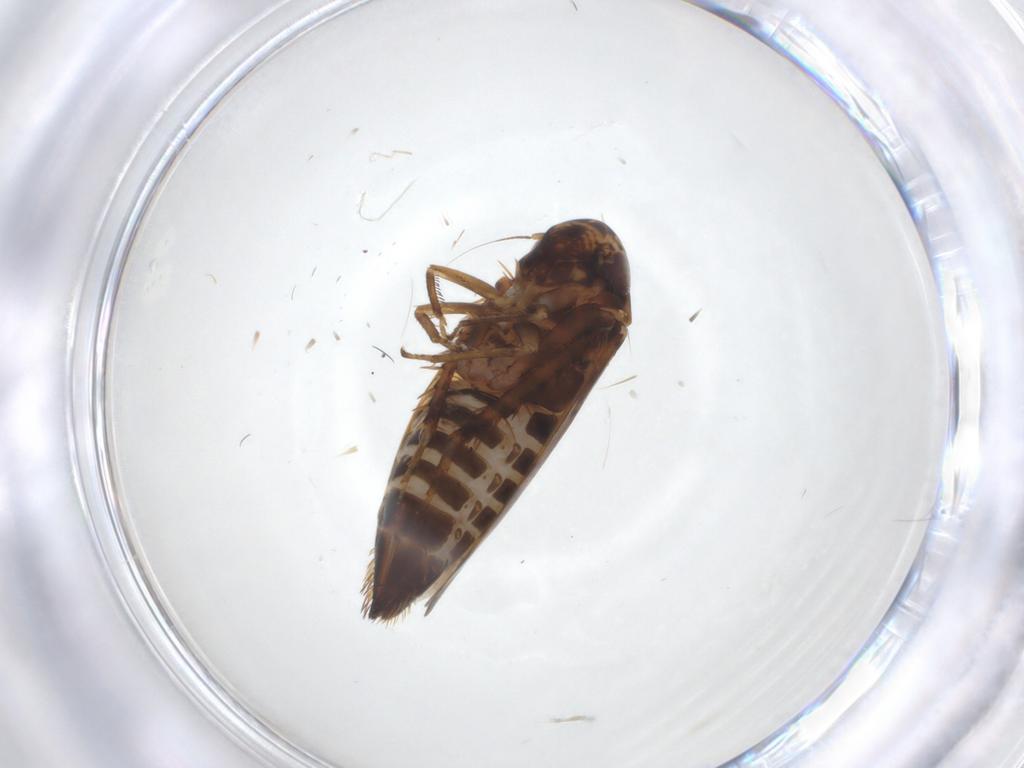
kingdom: Animalia
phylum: Arthropoda
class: Insecta
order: Hemiptera
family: Cicadellidae
